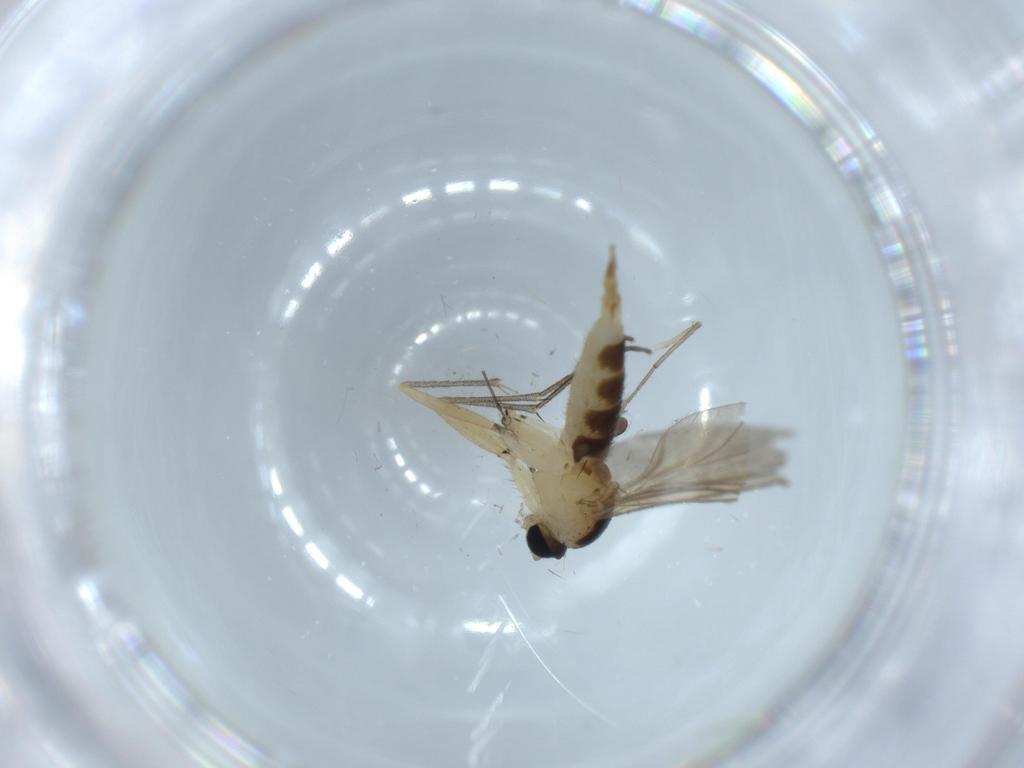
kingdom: Animalia
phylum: Arthropoda
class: Insecta
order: Diptera
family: Sciaridae
